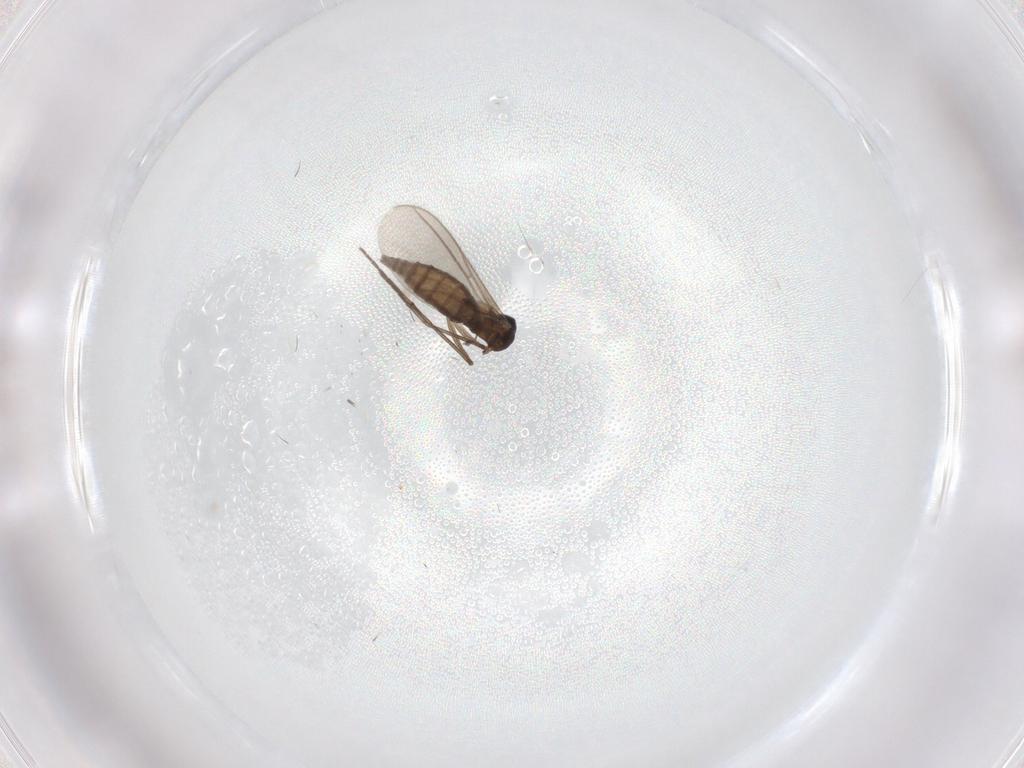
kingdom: Animalia
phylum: Arthropoda
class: Insecta
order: Diptera
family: Sciaridae
